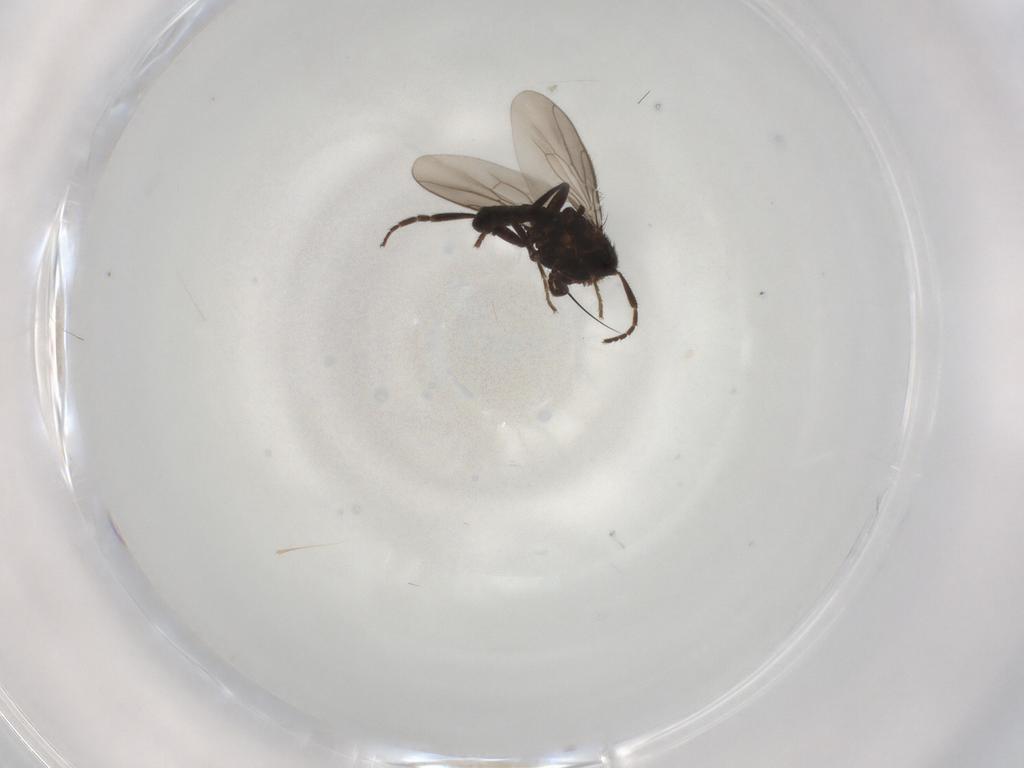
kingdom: Animalia
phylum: Arthropoda
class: Insecta
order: Diptera
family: Sphaeroceridae
